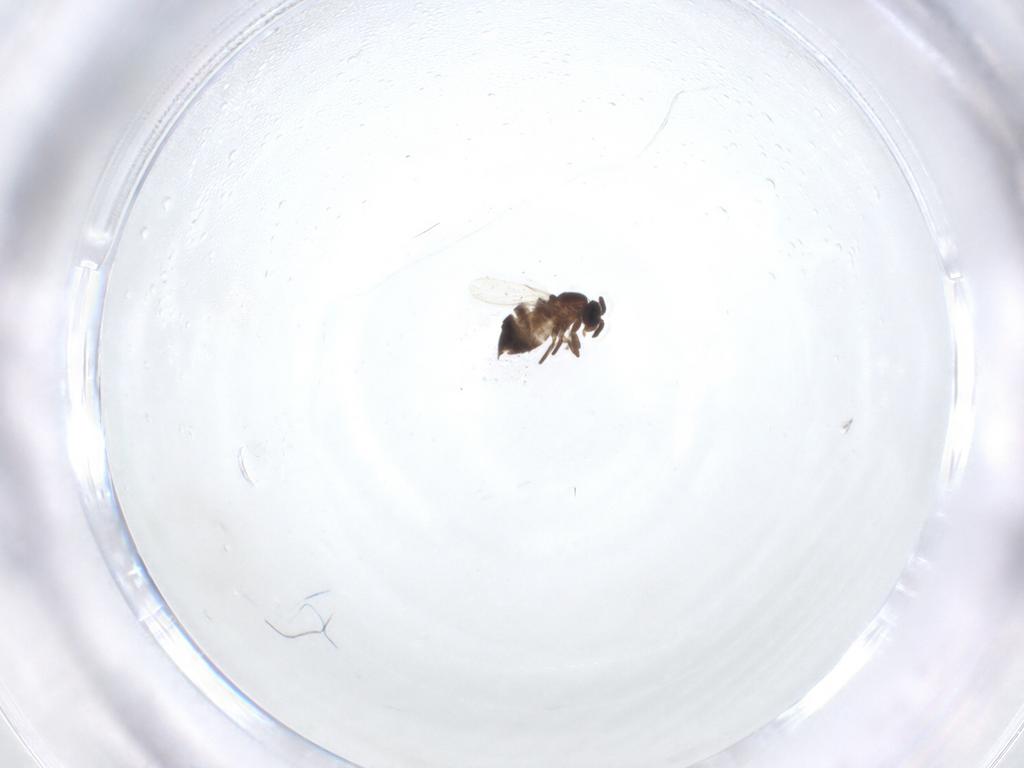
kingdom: Animalia
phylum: Arthropoda
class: Insecta
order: Diptera
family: Scatopsidae
